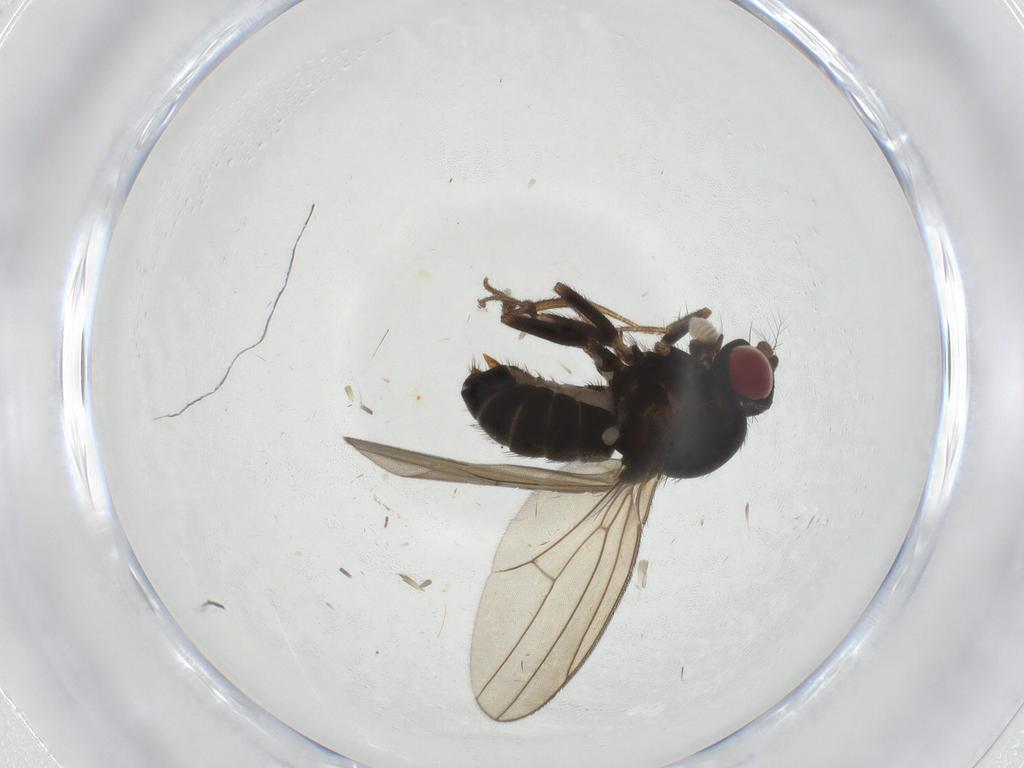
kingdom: Animalia
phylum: Arthropoda
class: Insecta
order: Diptera
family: Drosophilidae
